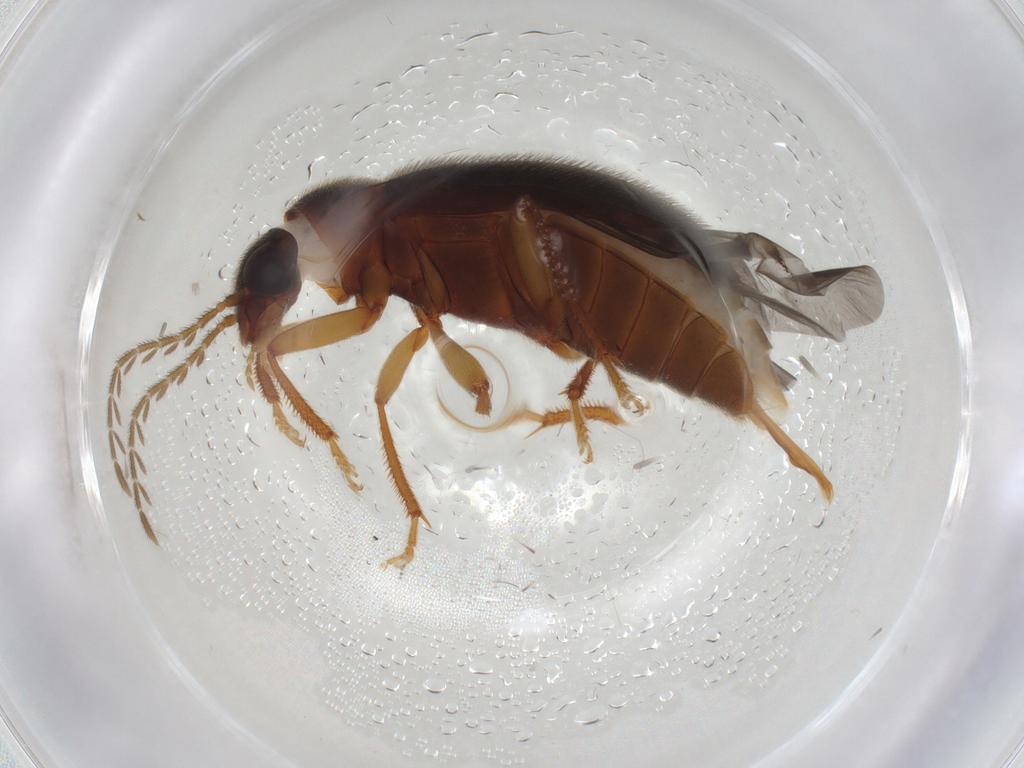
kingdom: Animalia
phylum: Arthropoda
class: Insecta
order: Coleoptera
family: Ptilodactylidae
